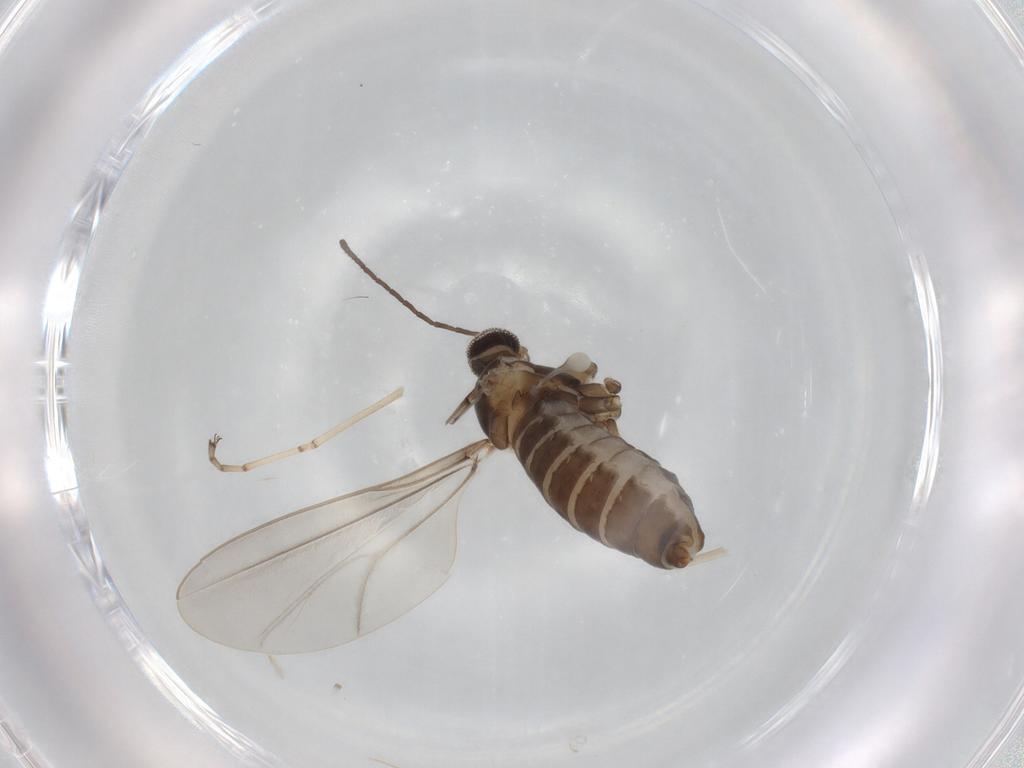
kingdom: Animalia
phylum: Arthropoda
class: Insecta
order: Diptera
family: Cecidomyiidae
